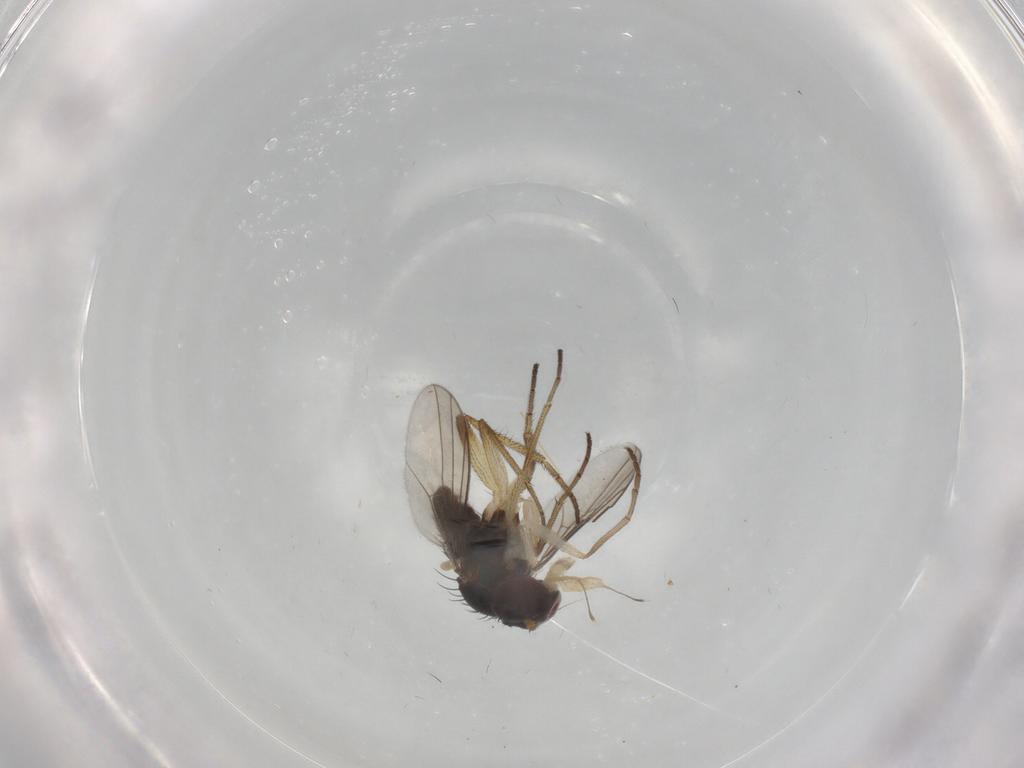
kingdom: Animalia
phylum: Arthropoda
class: Insecta
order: Diptera
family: Dolichopodidae
